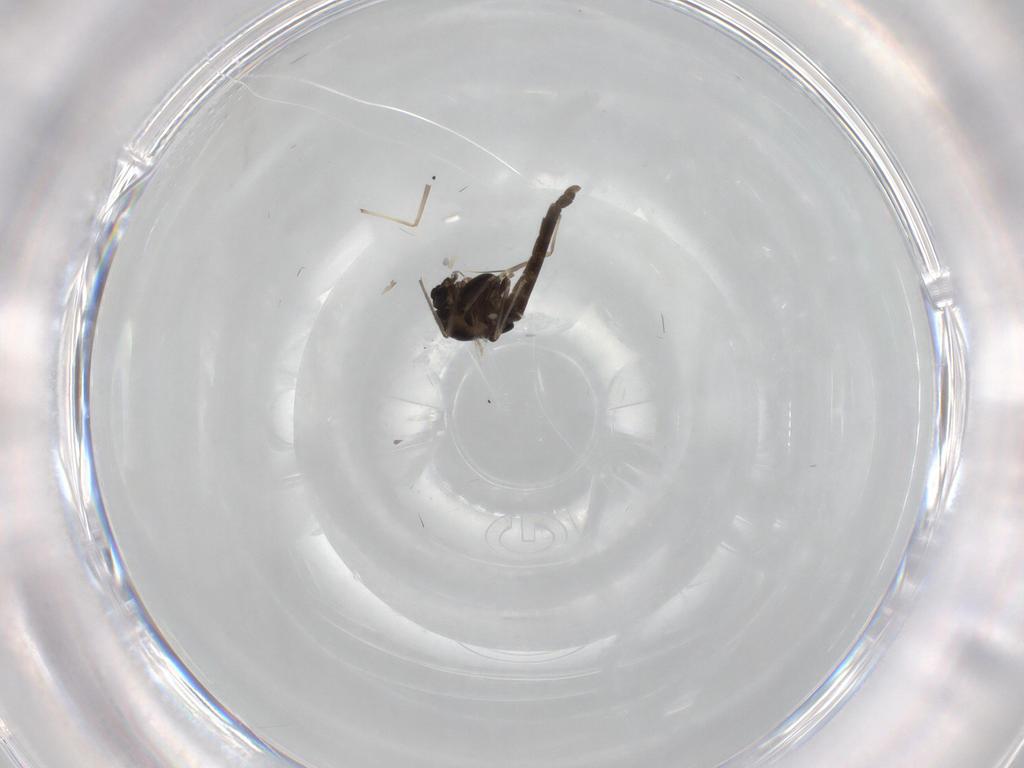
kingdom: Animalia
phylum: Arthropoda
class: Insecta
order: Diptera
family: Chironomidae
